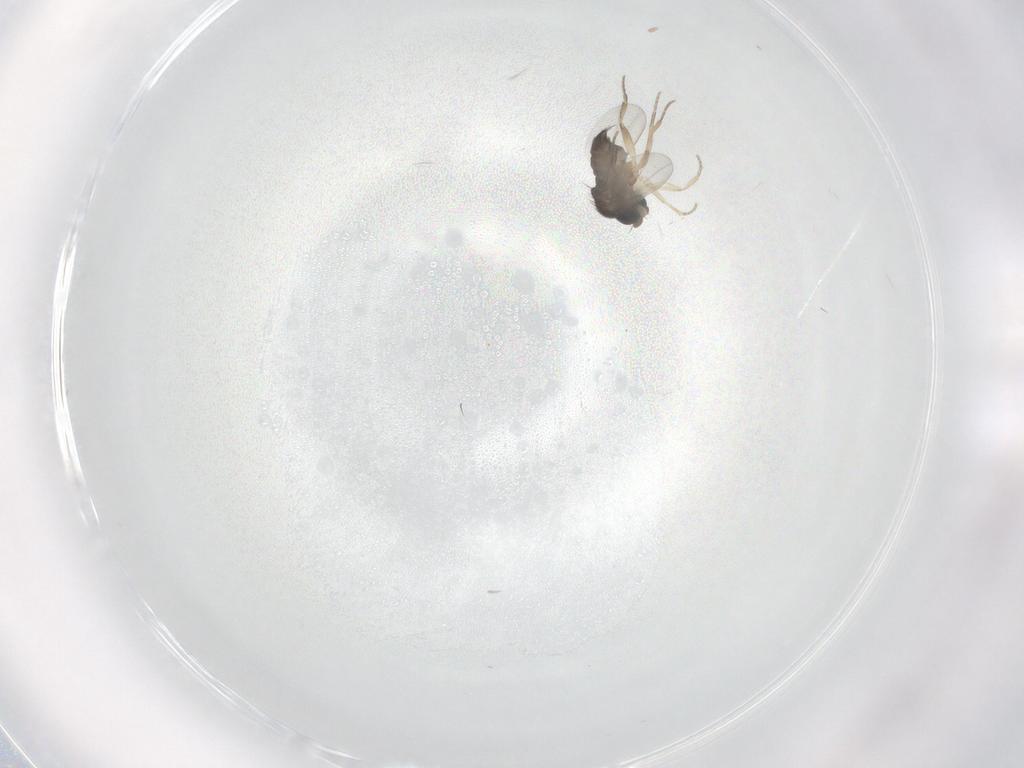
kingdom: Animalia
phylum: Arthropoda
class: Insecta
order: Diptera
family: Phoridae
